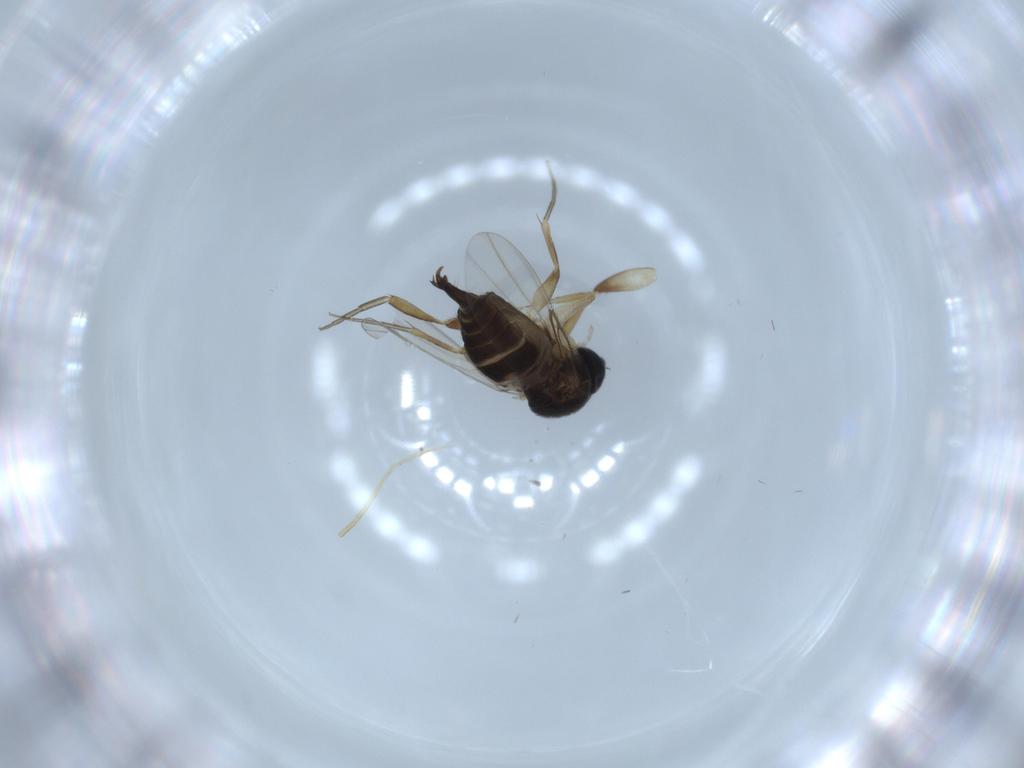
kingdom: Animalia
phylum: Arthropoda
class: Insecta
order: Diptera
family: Phoridae
